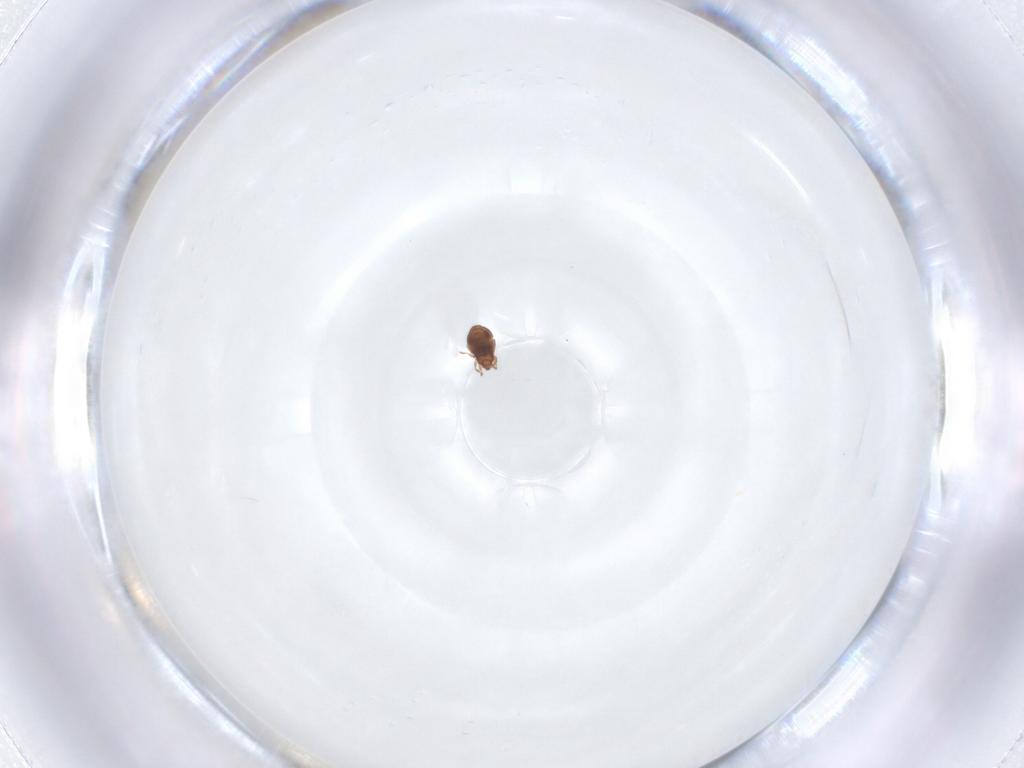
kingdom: Animalia
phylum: Arthropoda
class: Arachnida
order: Sarcoptiformes
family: Dendroeremaeidae
